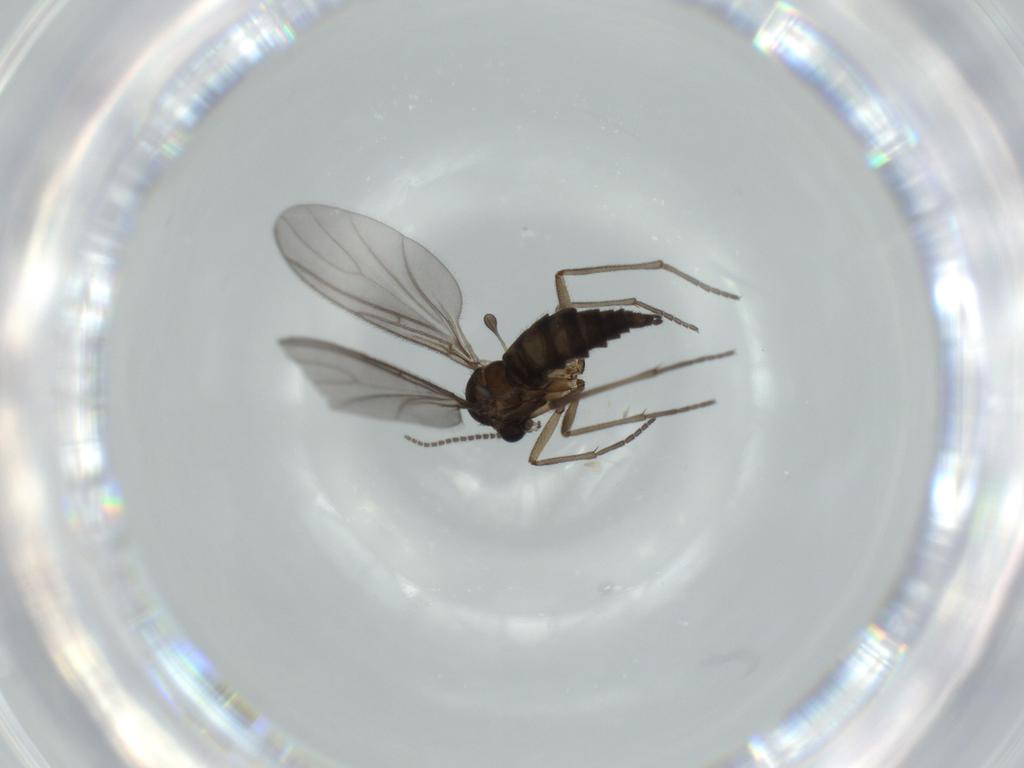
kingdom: Animalia
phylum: Arthropoda
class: Insecta
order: Diptera
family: Sciaridae
